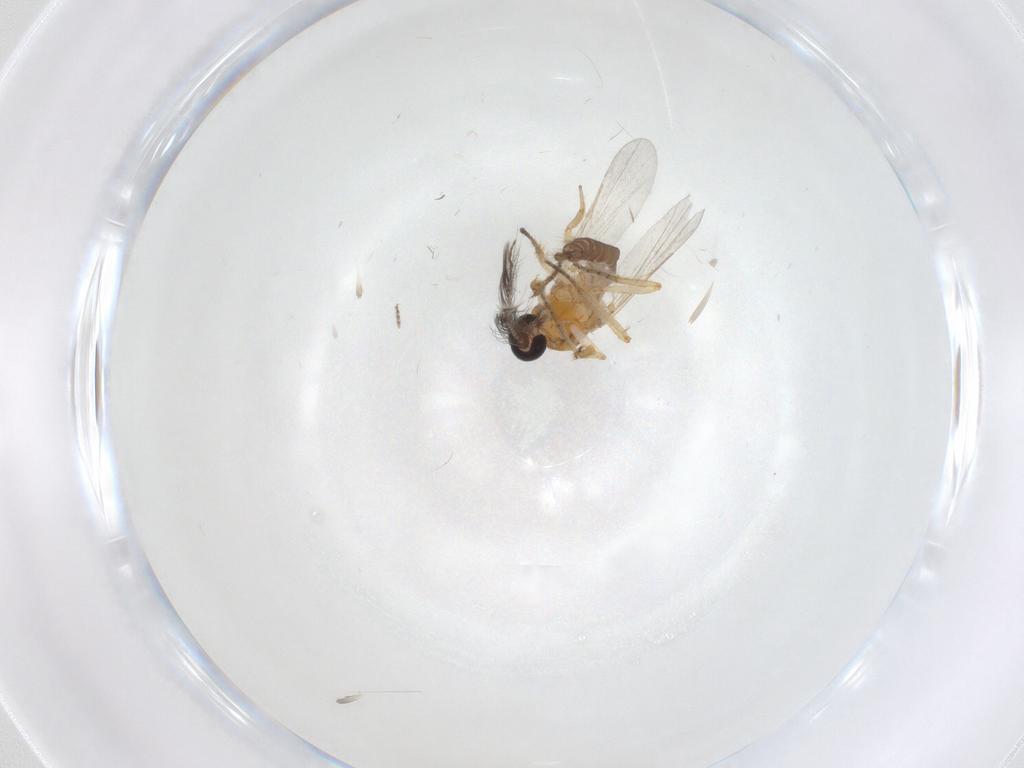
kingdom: Animalia
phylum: Arthropoda
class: Insecta
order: Diptera
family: Ceratopogonidae
